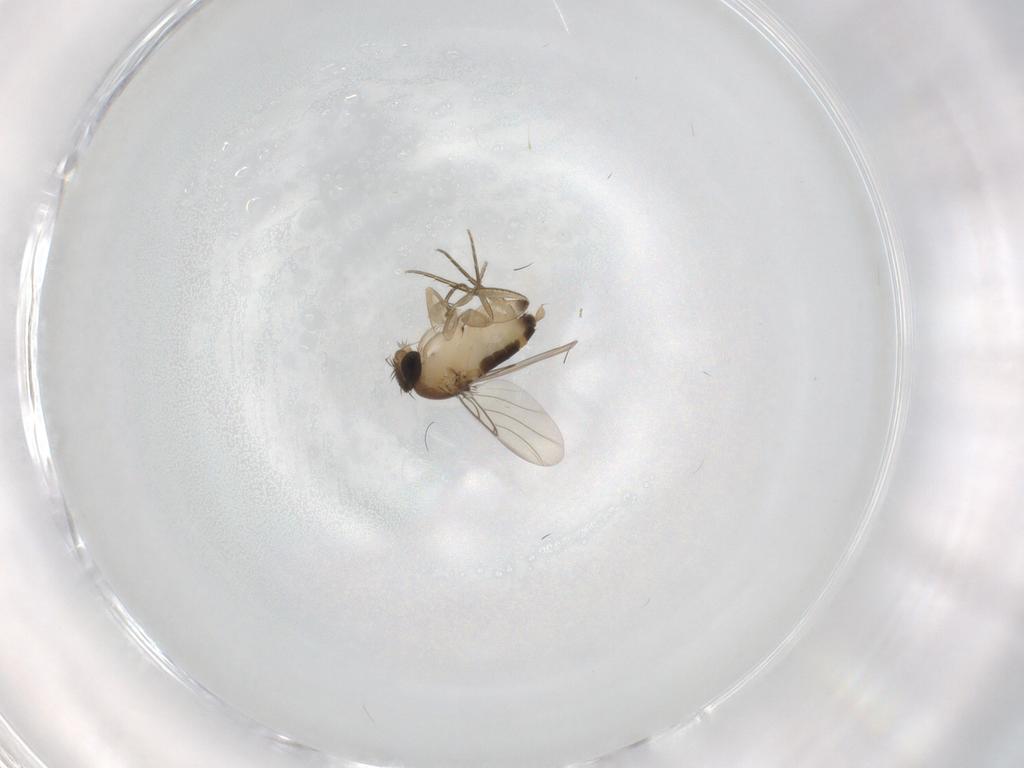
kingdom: Animalia
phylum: Arthropoda
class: Insecta
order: Diptera
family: Phoridae
